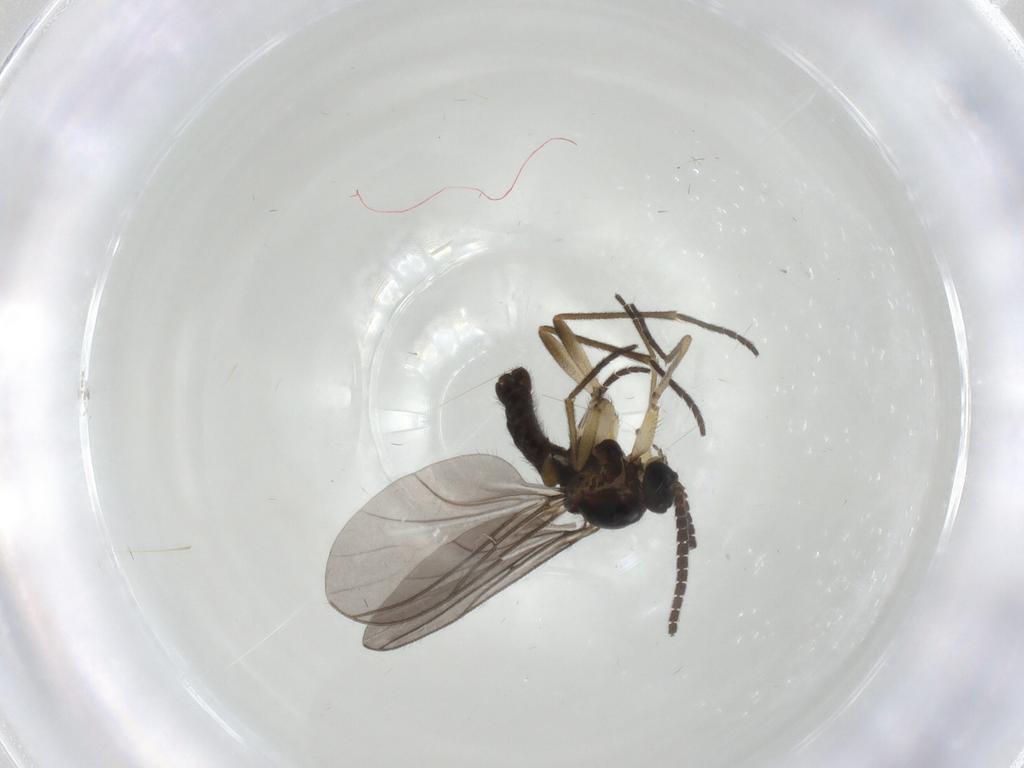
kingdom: Animalia
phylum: Arthropoda
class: Insecta
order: Diptera
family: Sciaridae
